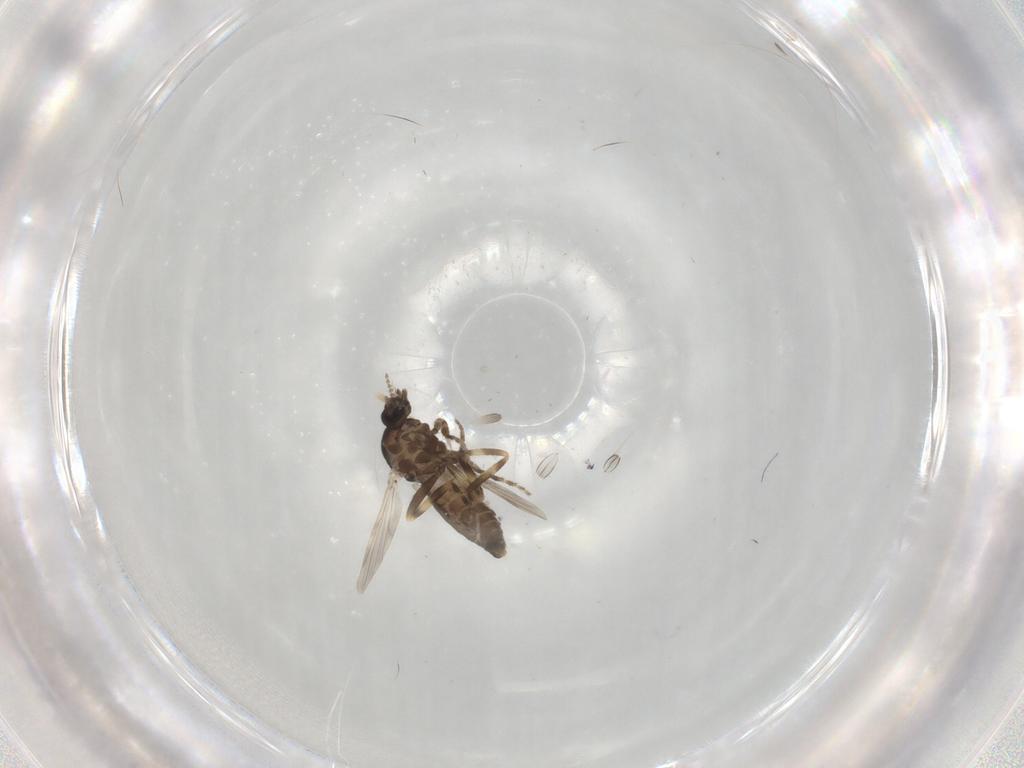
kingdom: Animalia
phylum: Arthropoda
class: Insecta
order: Diptera
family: Ceratopogonidae
